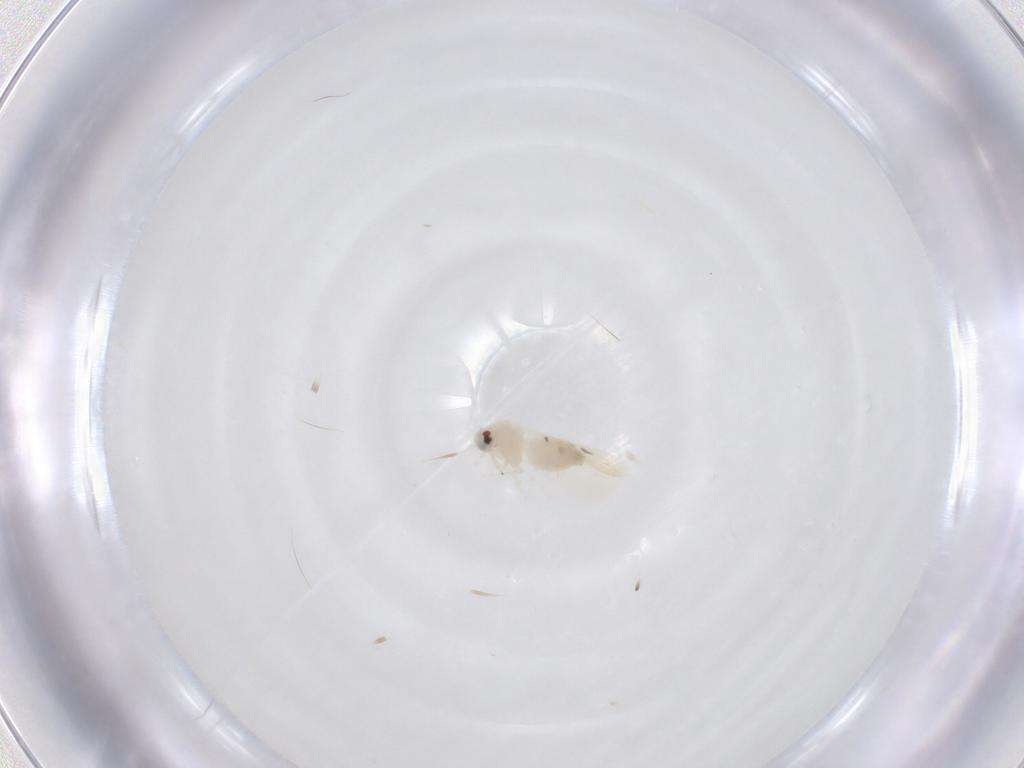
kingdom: Animalia
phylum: Arthropoda
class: Insecta
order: Hemiptera
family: Aleyrodidae
